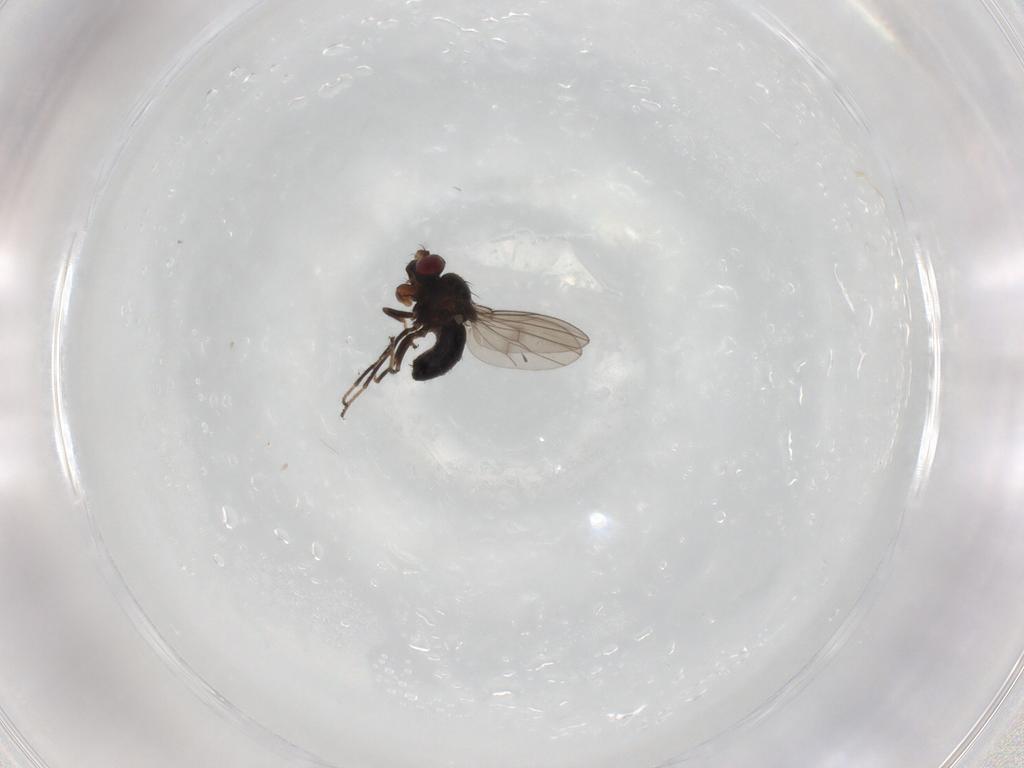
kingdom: Animalia
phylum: Arthropoda
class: Insecta
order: Diptera
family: Ephydridae
